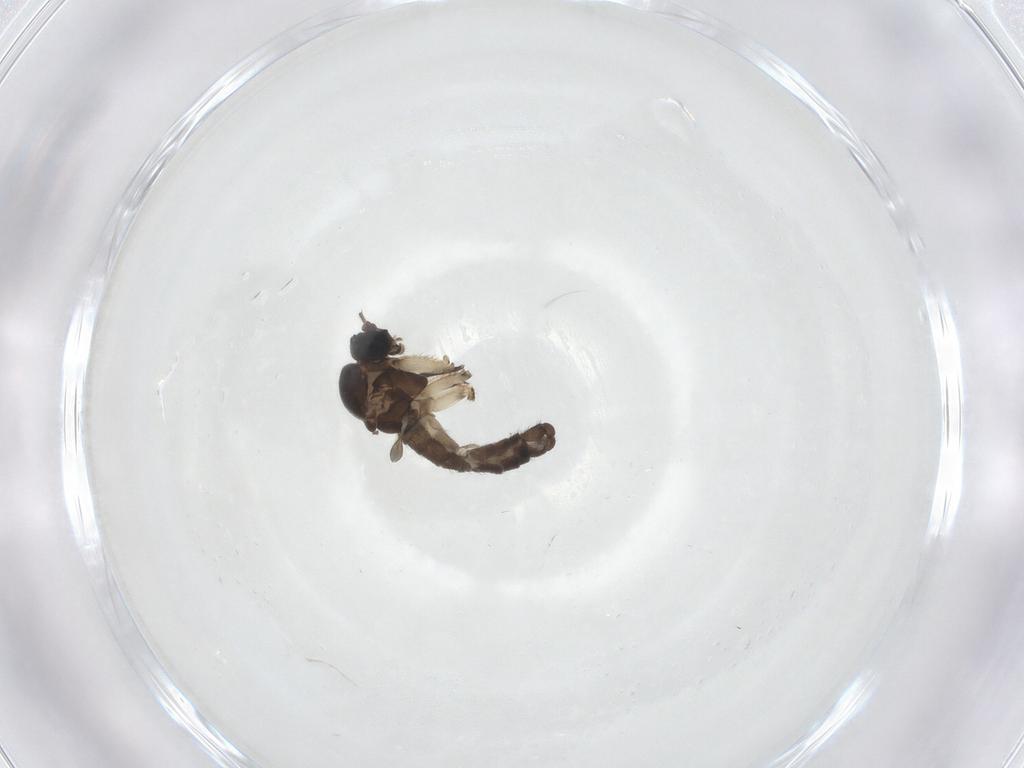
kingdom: Animalia
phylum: Arthropoda
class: Insecta
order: Diptera
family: Sciaridae
